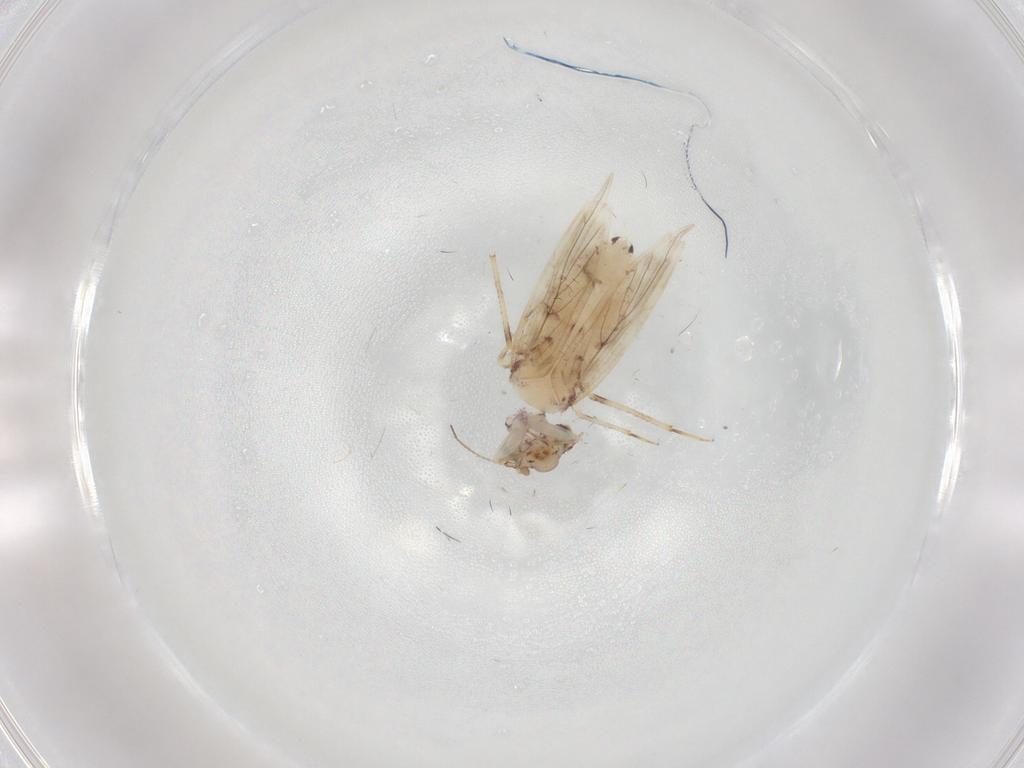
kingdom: Animalia
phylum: Arthropoda
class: Insecta
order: Psocodea
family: Lepidopsocidae
